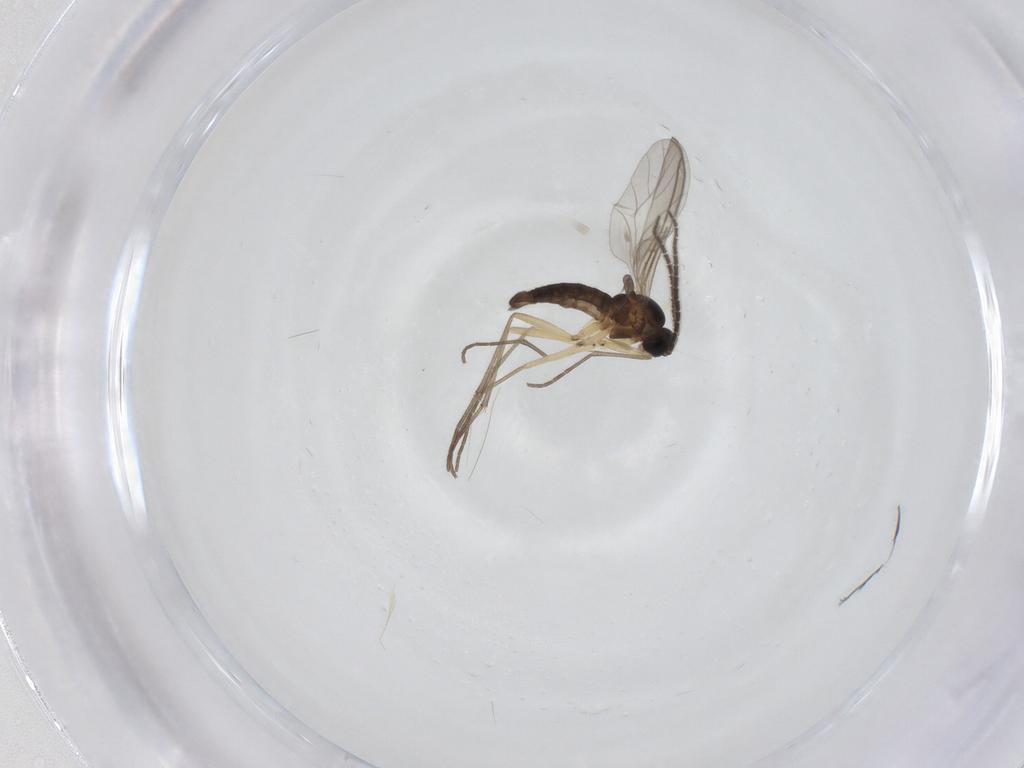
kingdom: Animalia
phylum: Arthropoda
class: Insecta
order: Diptera
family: Sciaridae
